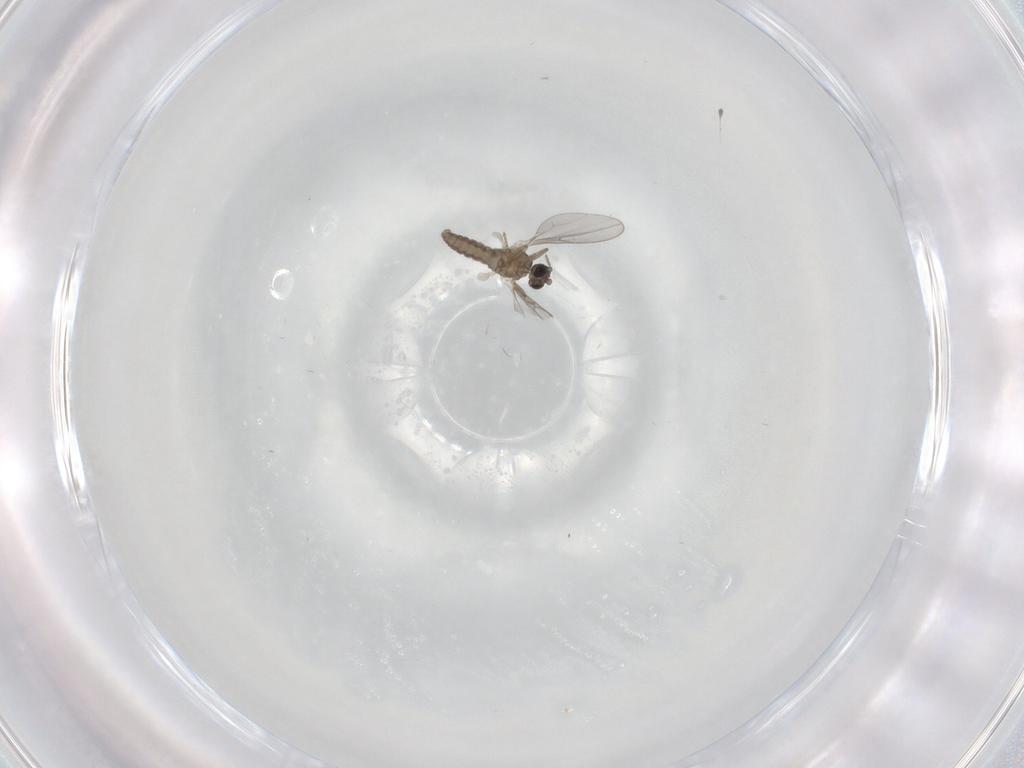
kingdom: Animalia
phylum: Arthropoda
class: Insecta
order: Diptera
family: Cecidomyiidae
